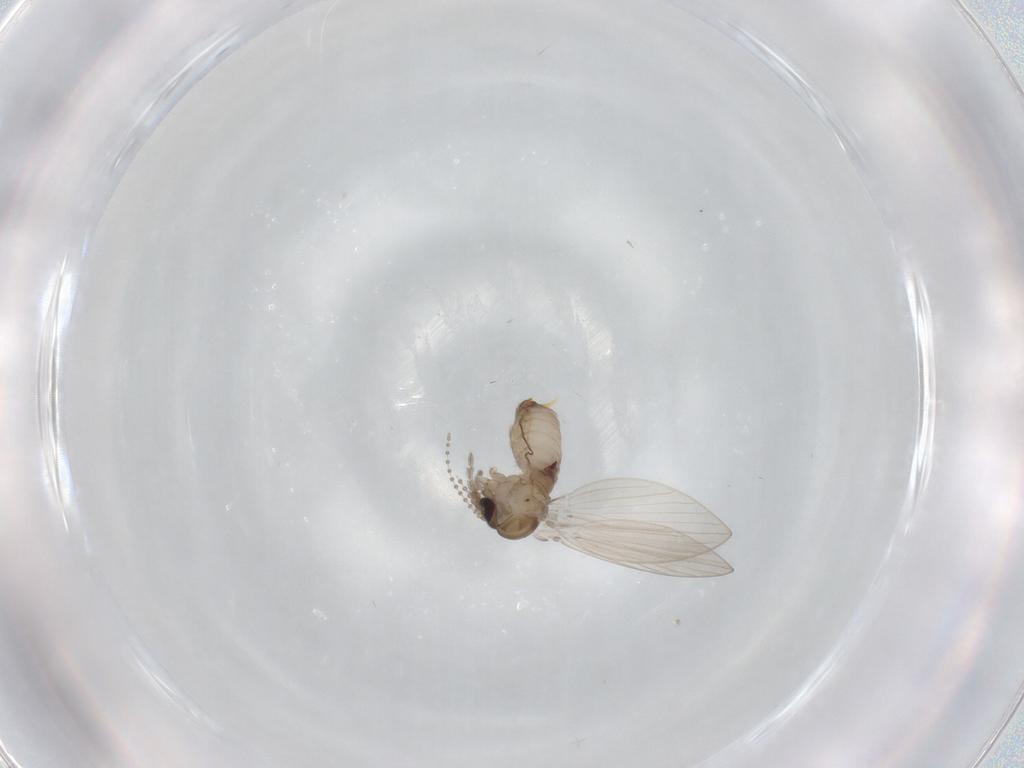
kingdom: Animalia
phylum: Arthropoda
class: Insecta
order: Diptera
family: Psychodidae
